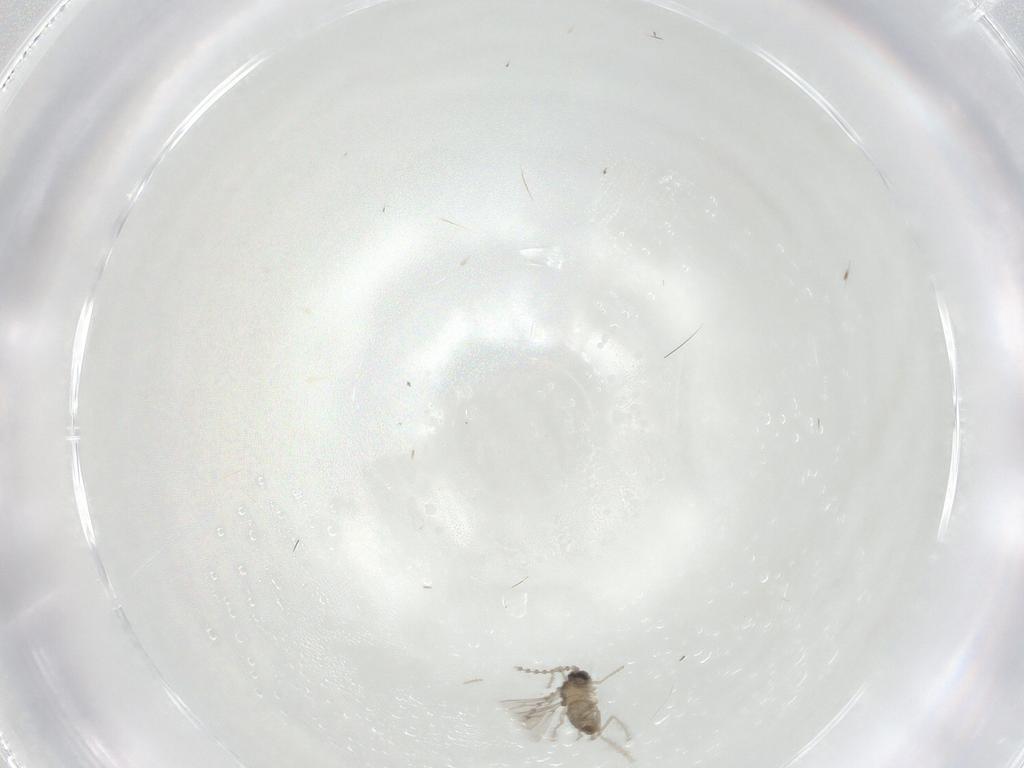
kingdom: Animalia
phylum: Arthropoda
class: Insecta
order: Diptera
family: Cecidomyiidae
